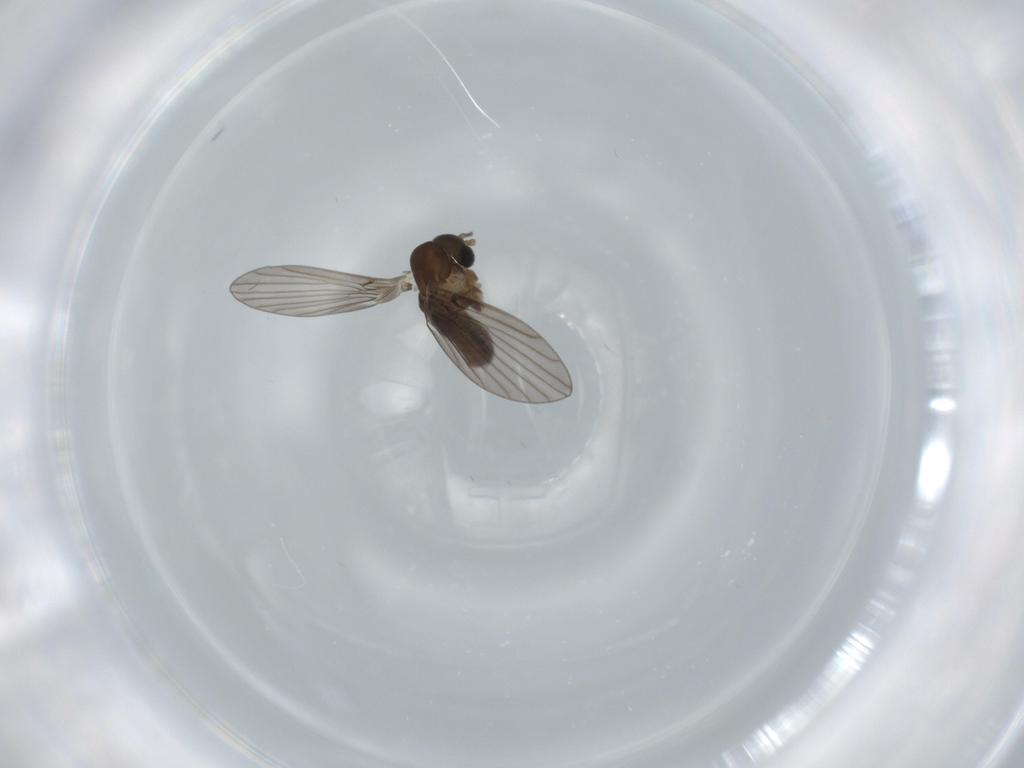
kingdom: Animalia
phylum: Arthropoda
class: Insecta
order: Diptera
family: Psychodidae
